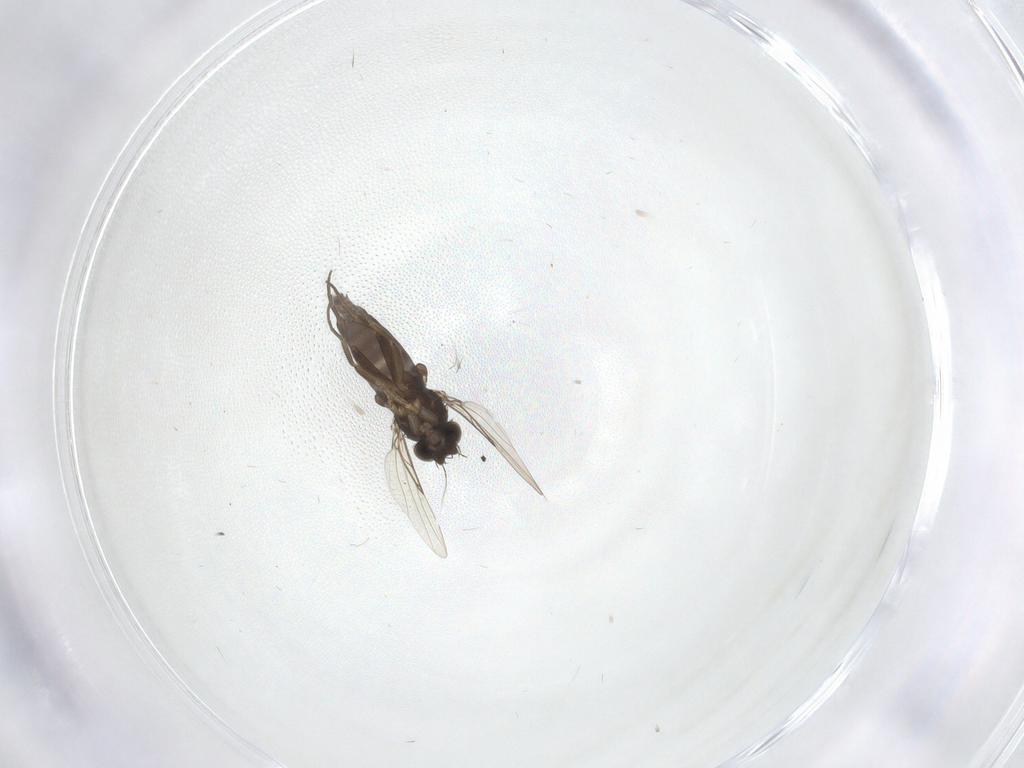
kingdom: Animalia
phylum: Arthropoda
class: Insecta
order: Diptera
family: Phoridae
